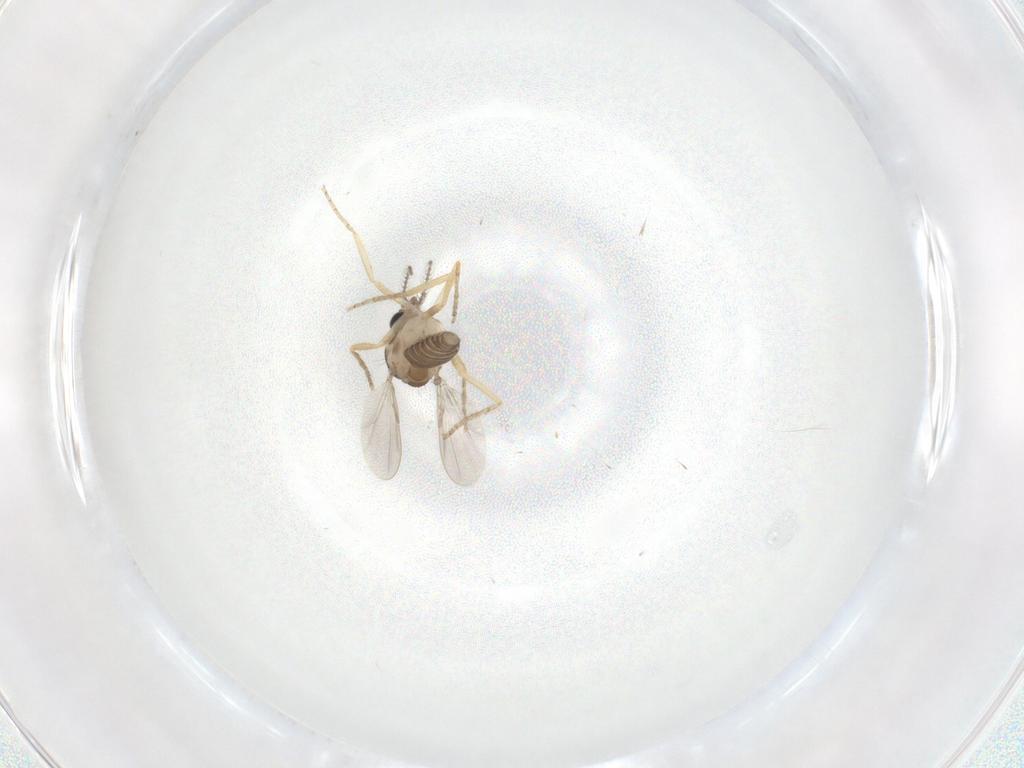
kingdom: Animalia
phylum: Arthropoda
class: Insecta
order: Diptera
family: Ceratopogonidae
